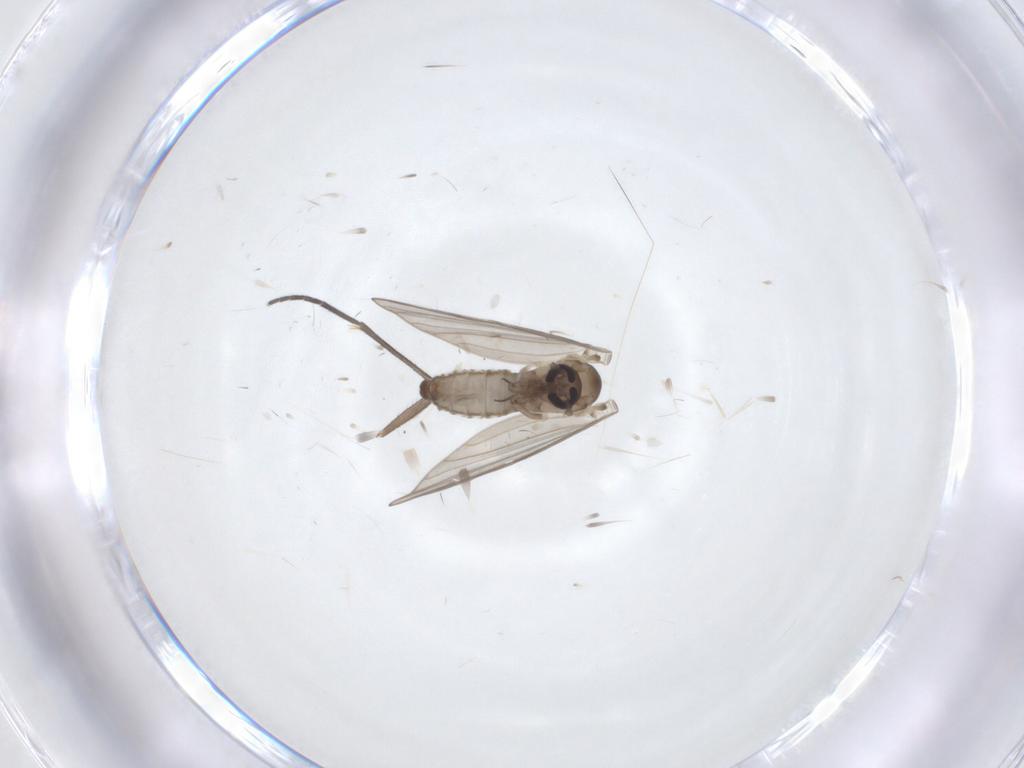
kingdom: Animalia
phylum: Arthropoda
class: Insecta
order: Diptera
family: Psychodidae
